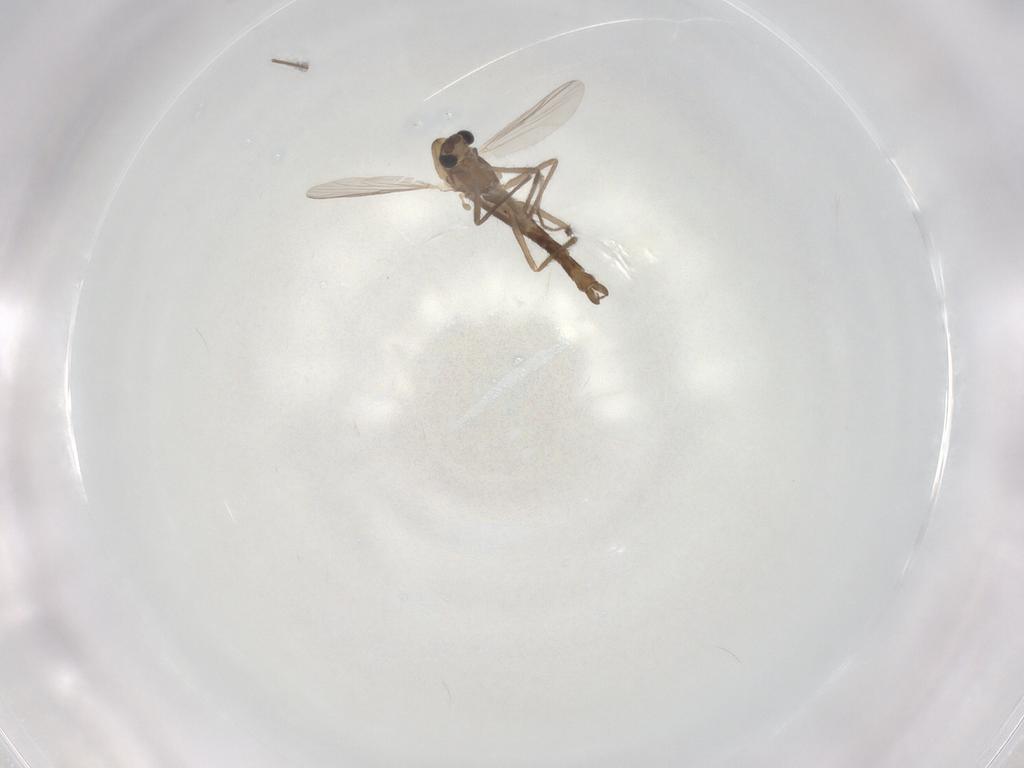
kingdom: Animalia
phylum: Arthropoda
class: Insecta
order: Diptera
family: Chironomidae
